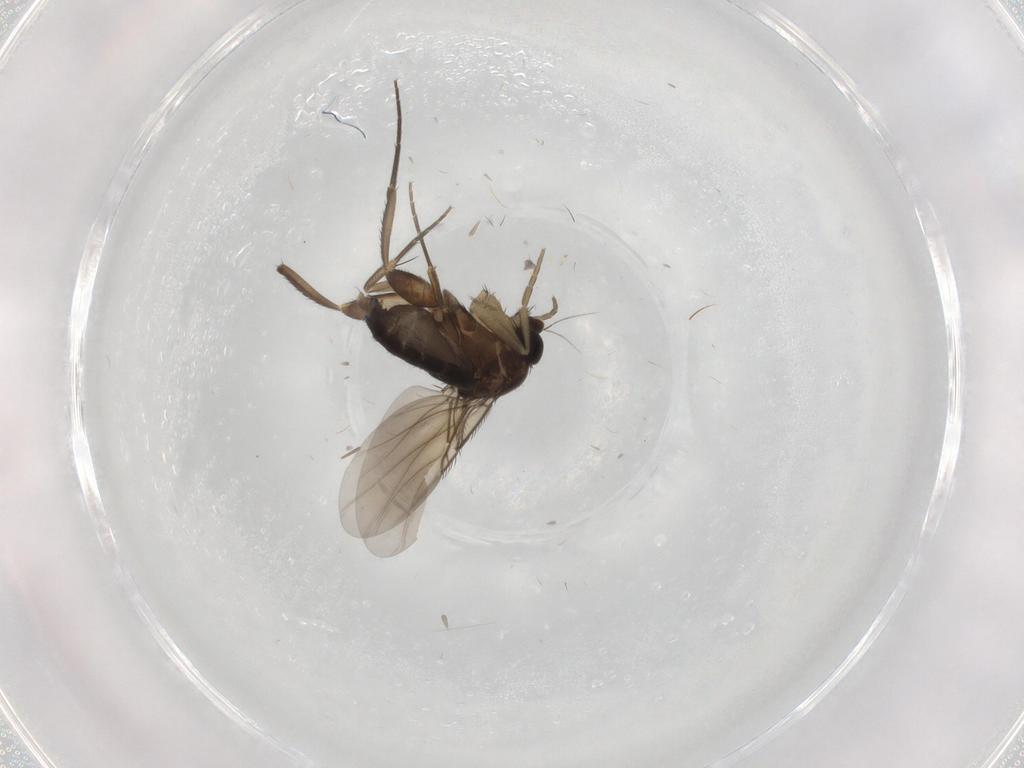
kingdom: Animalia
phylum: Arthropoda
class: Insecta
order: Diptera
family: Phoridae
